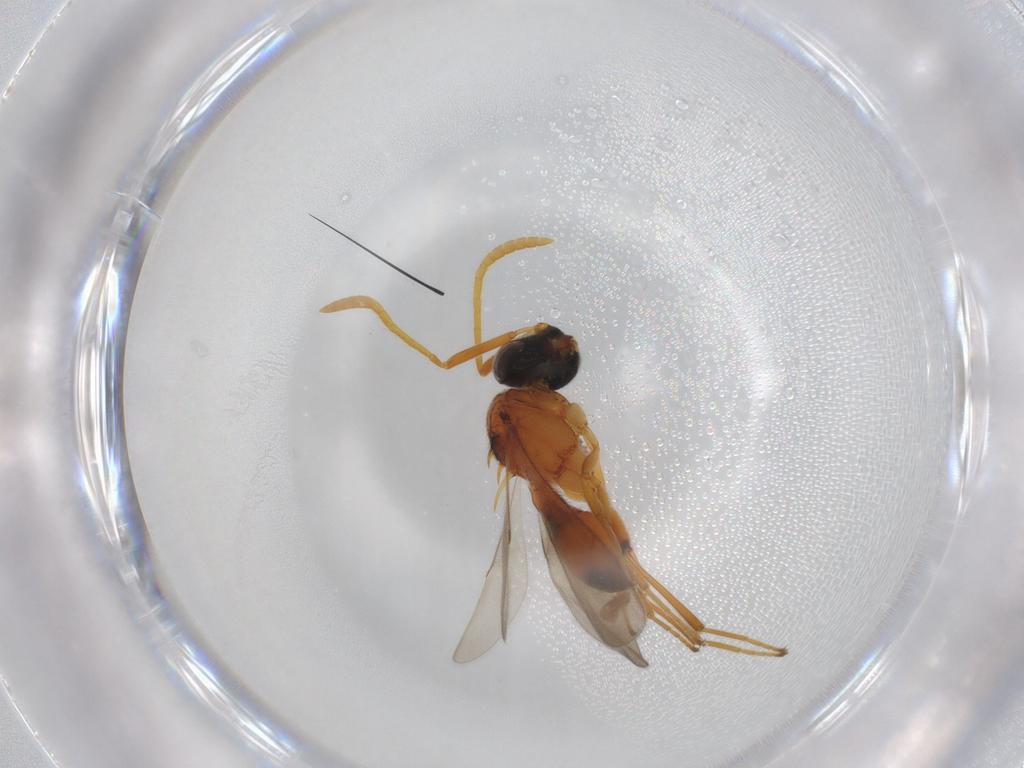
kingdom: Animalia
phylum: Arthropoda
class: Insecta
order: Hymenoptera
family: Scelionidae
